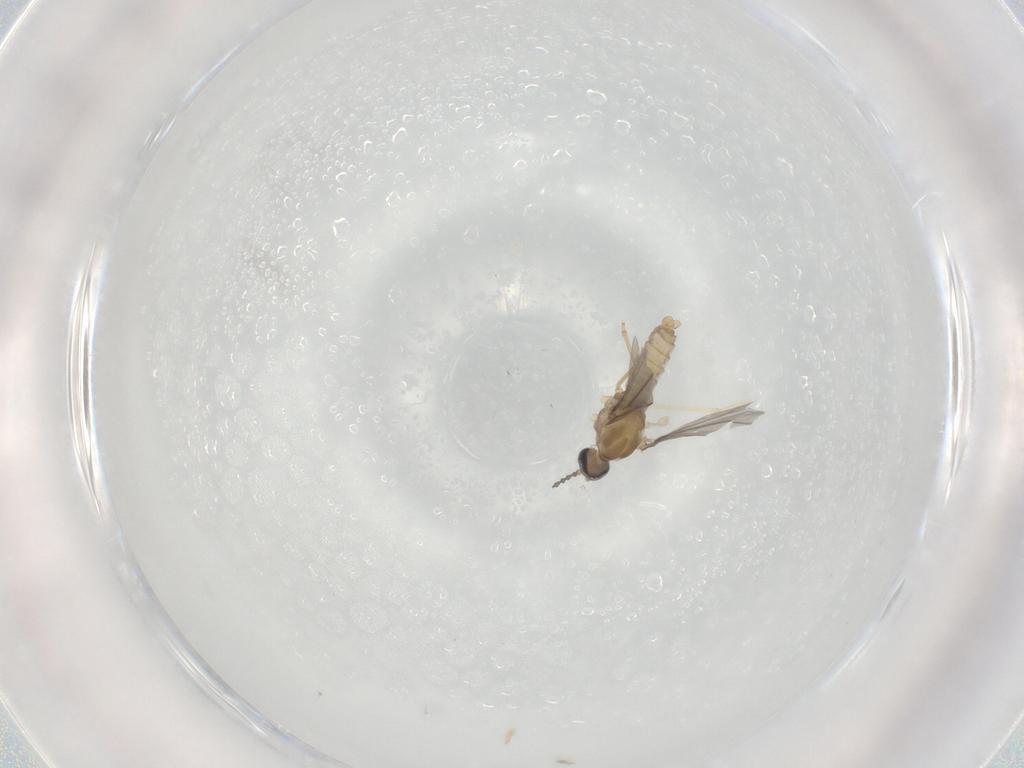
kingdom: Animalia
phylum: Arthropoda
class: Insecta
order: Diptera
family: Cecidomyiidae
